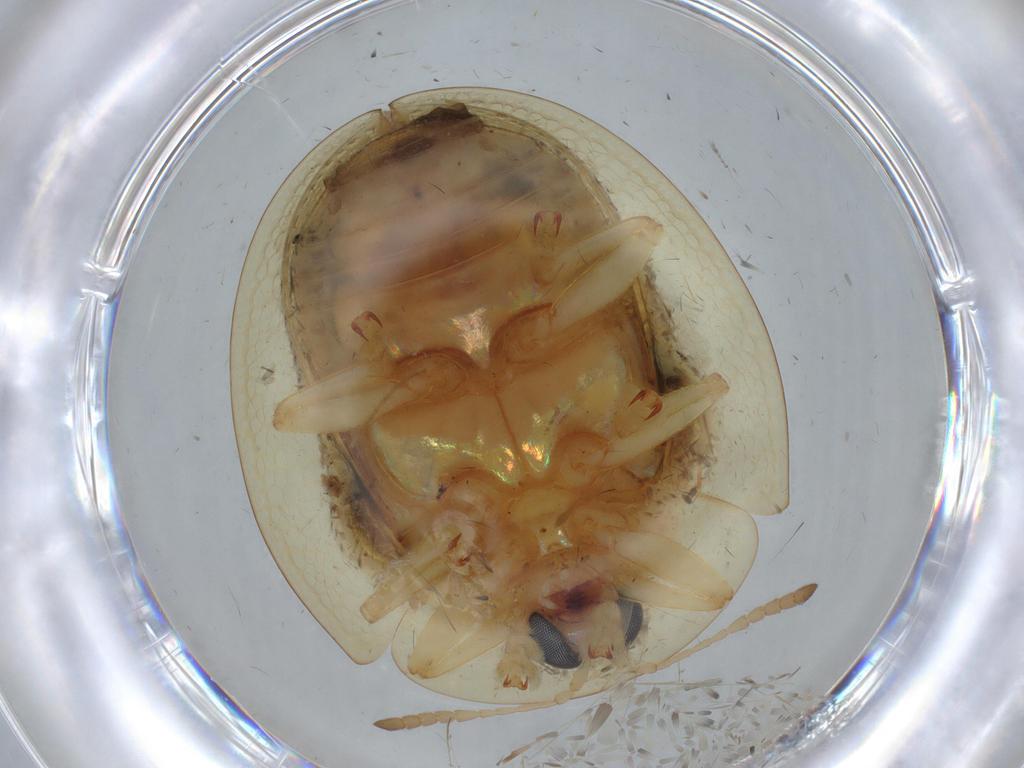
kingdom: Animalia
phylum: Arthropoda
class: Insecta
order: Coleoptera
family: Chrysomelidae
